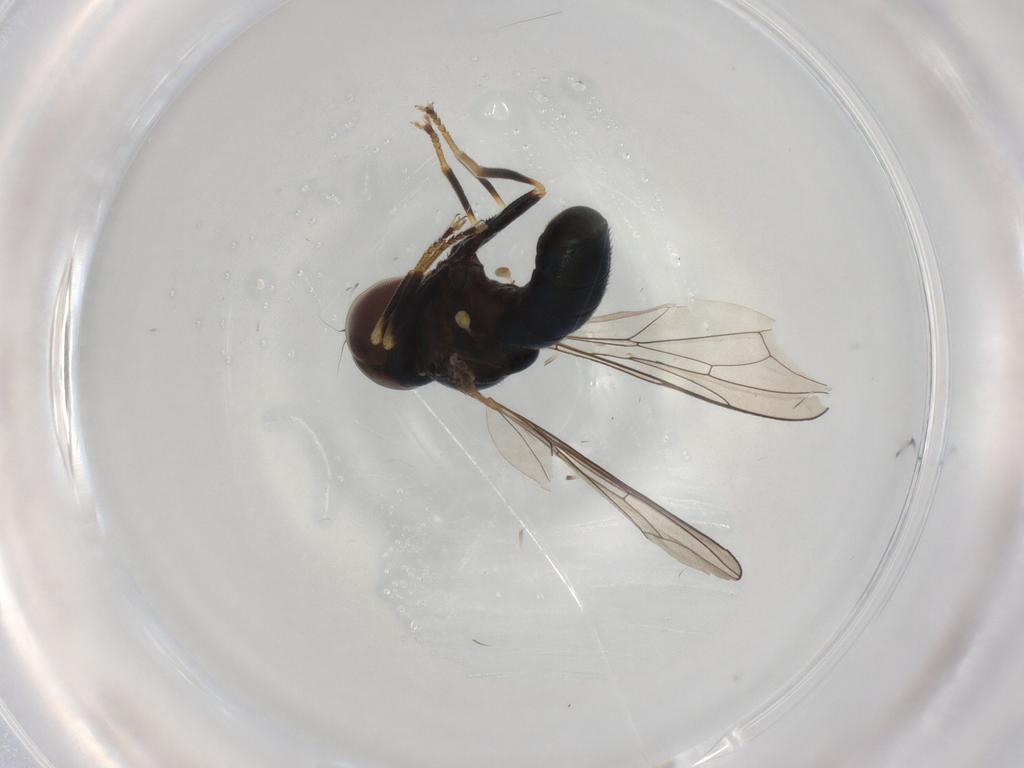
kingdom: Animalia
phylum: Arthropoda
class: Insecta
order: Diptera
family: Pipunculidae
